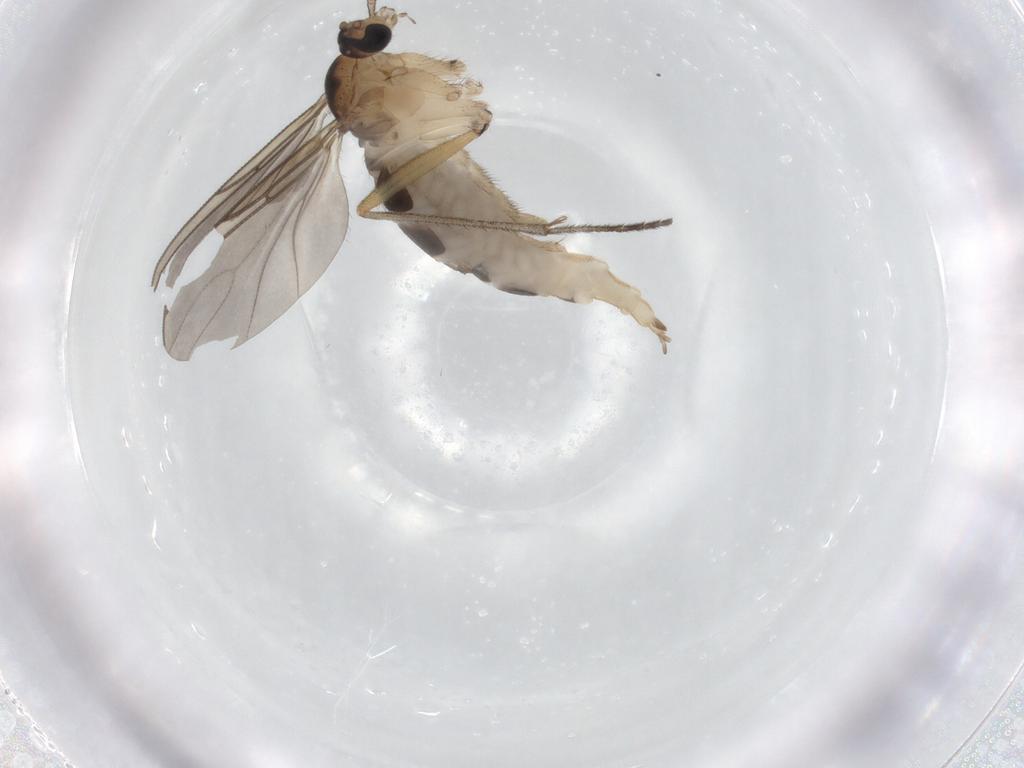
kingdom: Animalia
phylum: Arthropoda
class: Insecta
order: Diptera
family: Sciaridae
